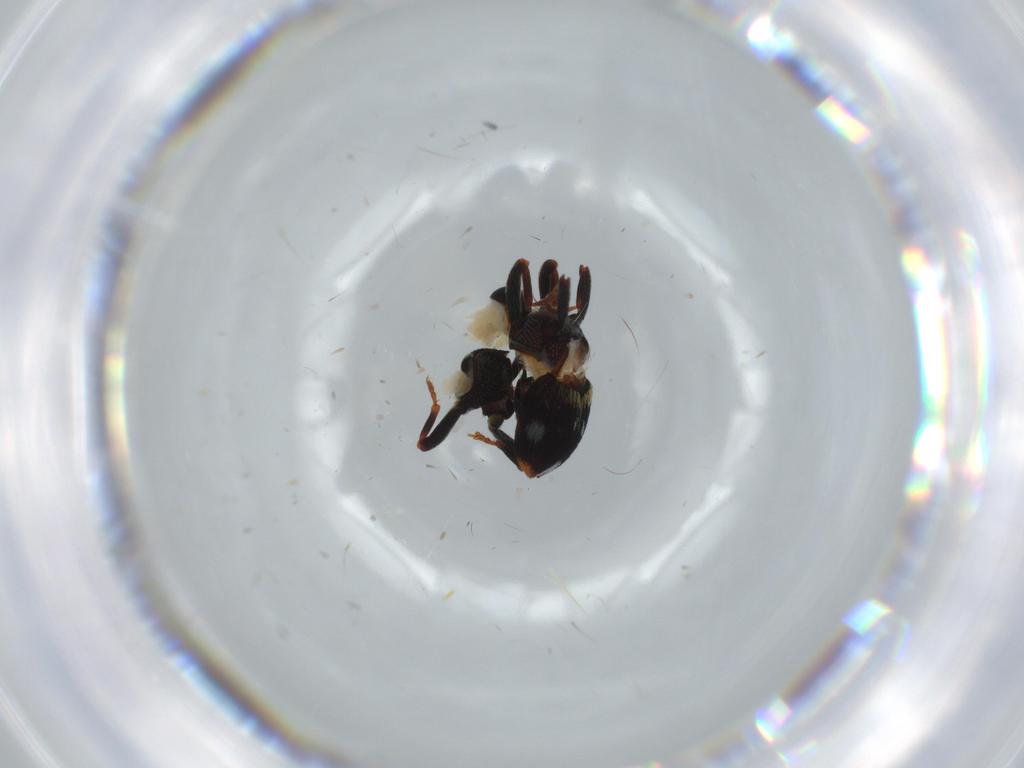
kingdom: Animalia
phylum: Arthropoda
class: Insecta
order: Coleoptera
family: Curculionidae
